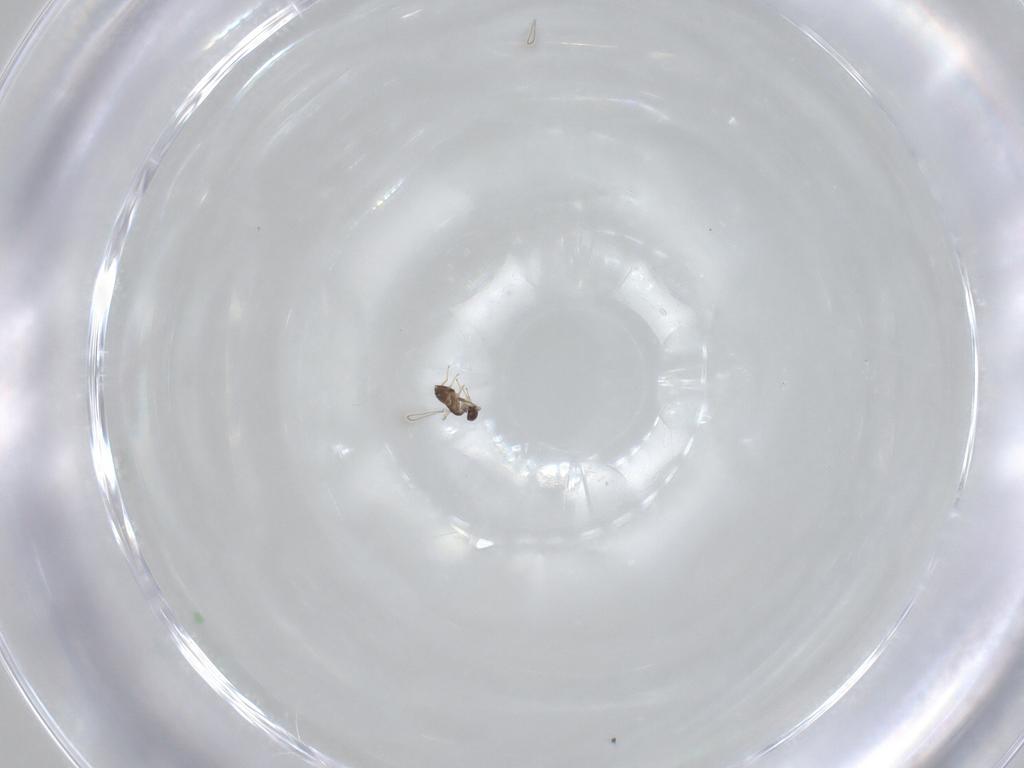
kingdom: Animalia
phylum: Arthropoda
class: Insecta
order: Hymenoptera
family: Mymaridae
